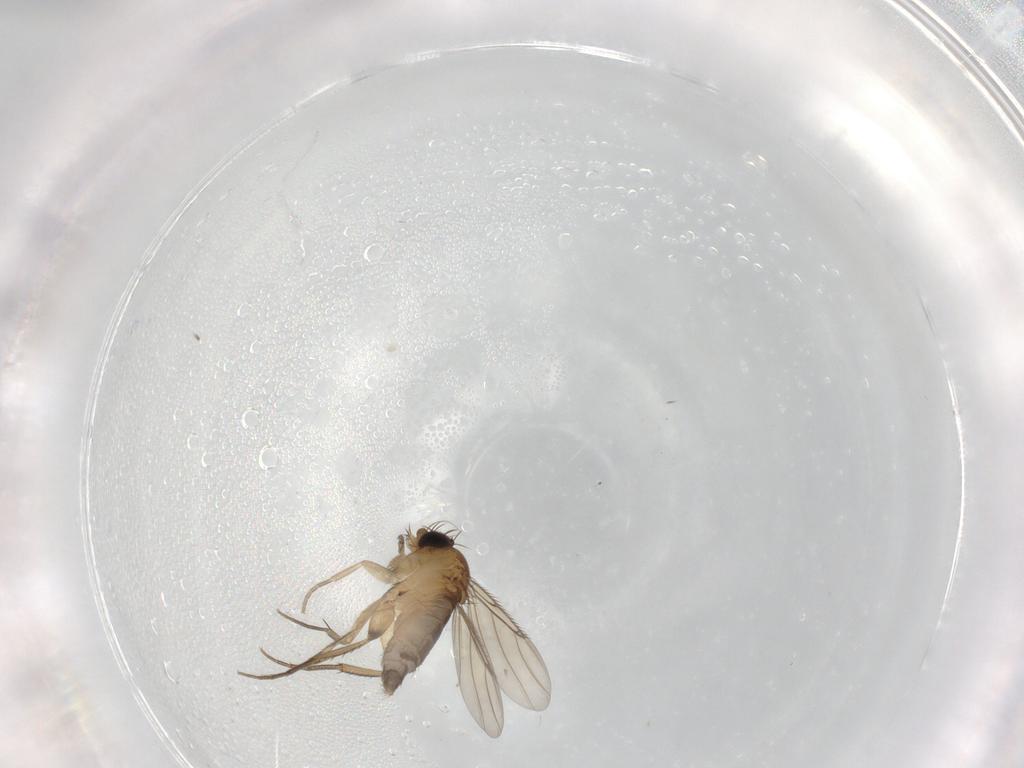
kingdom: Animalia
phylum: Arthropoda
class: Insecta
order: Diptera
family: Phoridae
